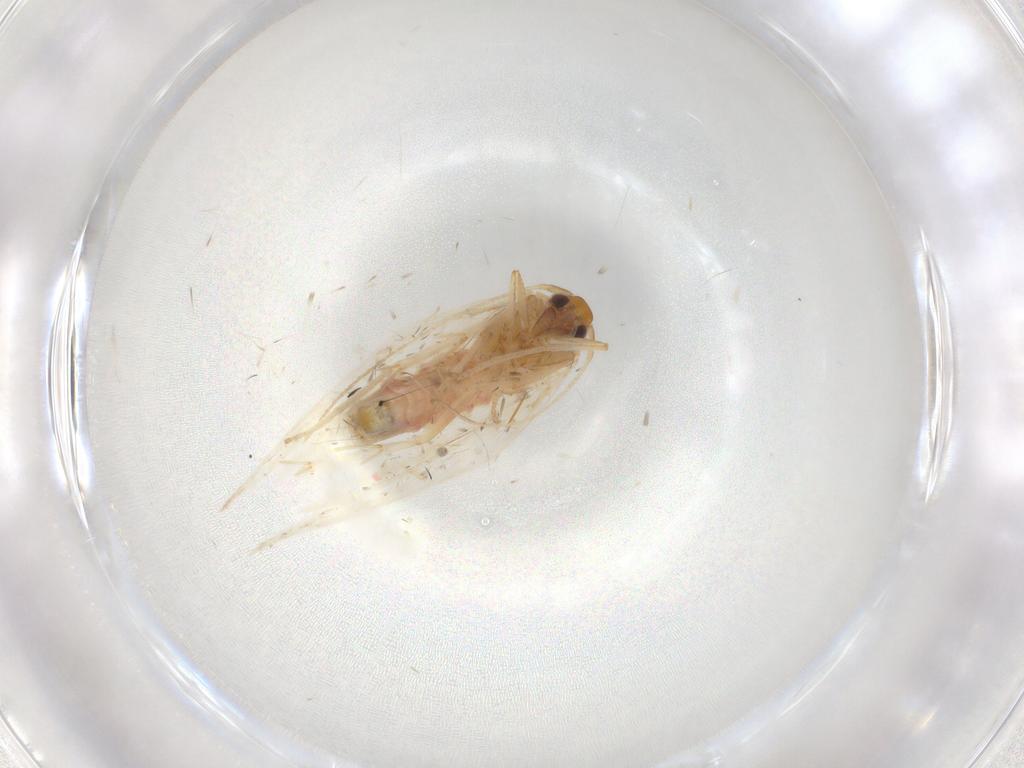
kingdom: Animalia
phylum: Arthropoda
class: Insecta
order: Lepidoptera
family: Gelechiidae
